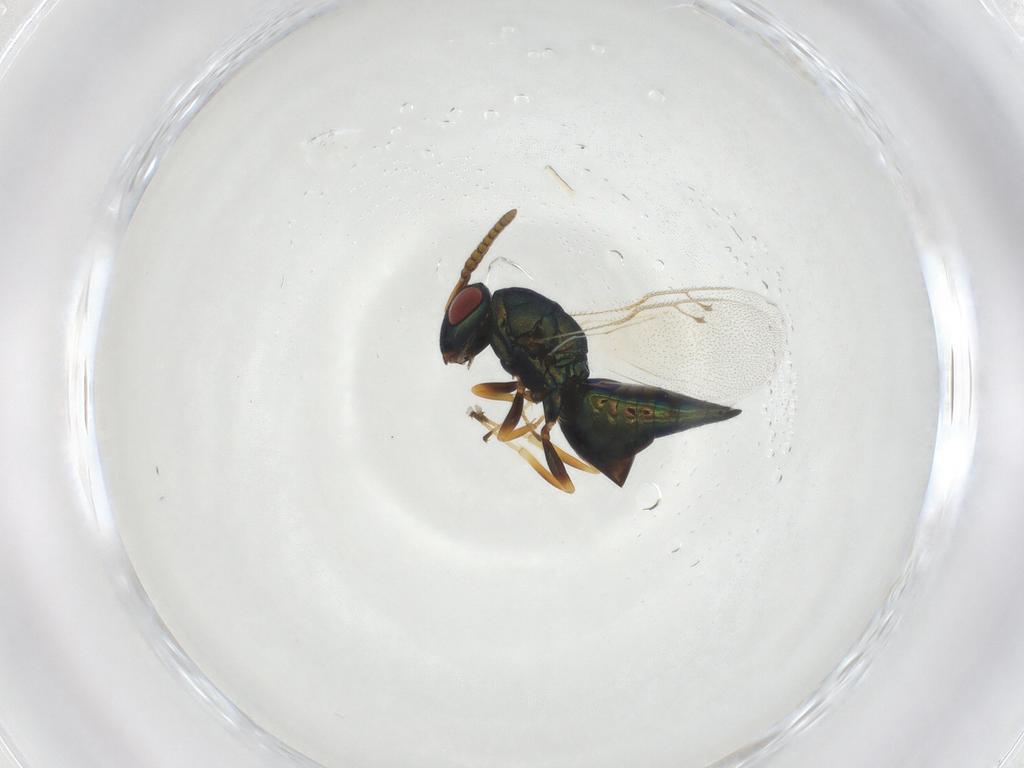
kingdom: Animalia
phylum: Arthropoda
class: Insecta
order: Hymenoptera
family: Pteromalidae
